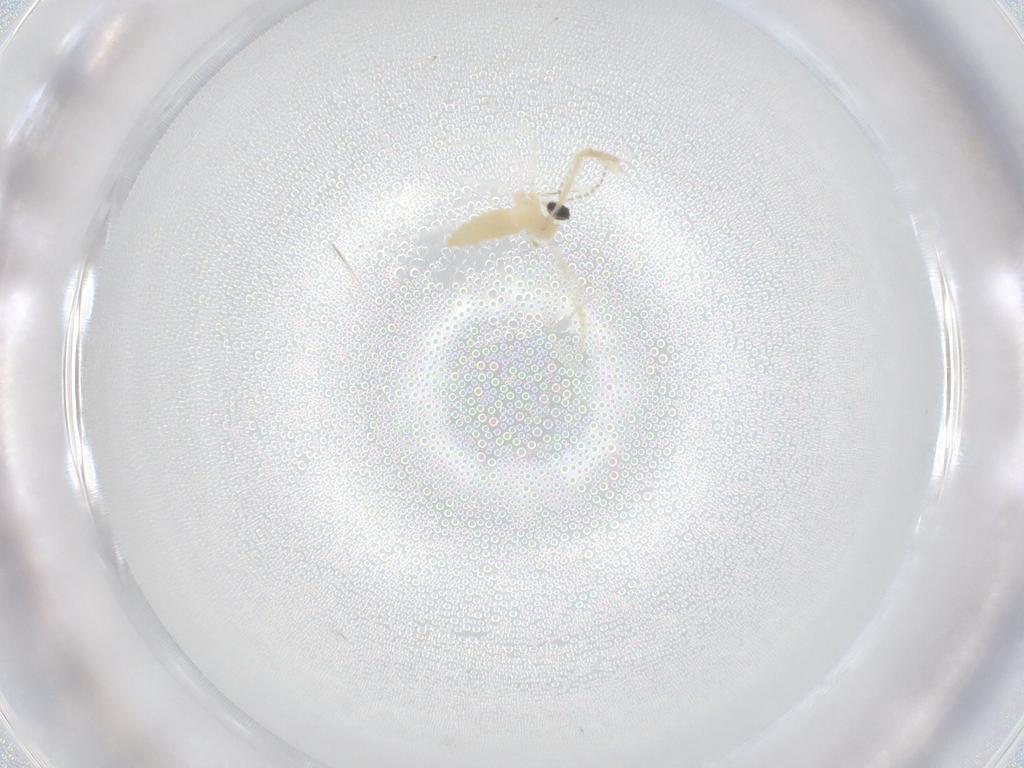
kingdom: Animalia
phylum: Arthropoda
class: Insecta
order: Diptera
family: Cecidomyiidae
